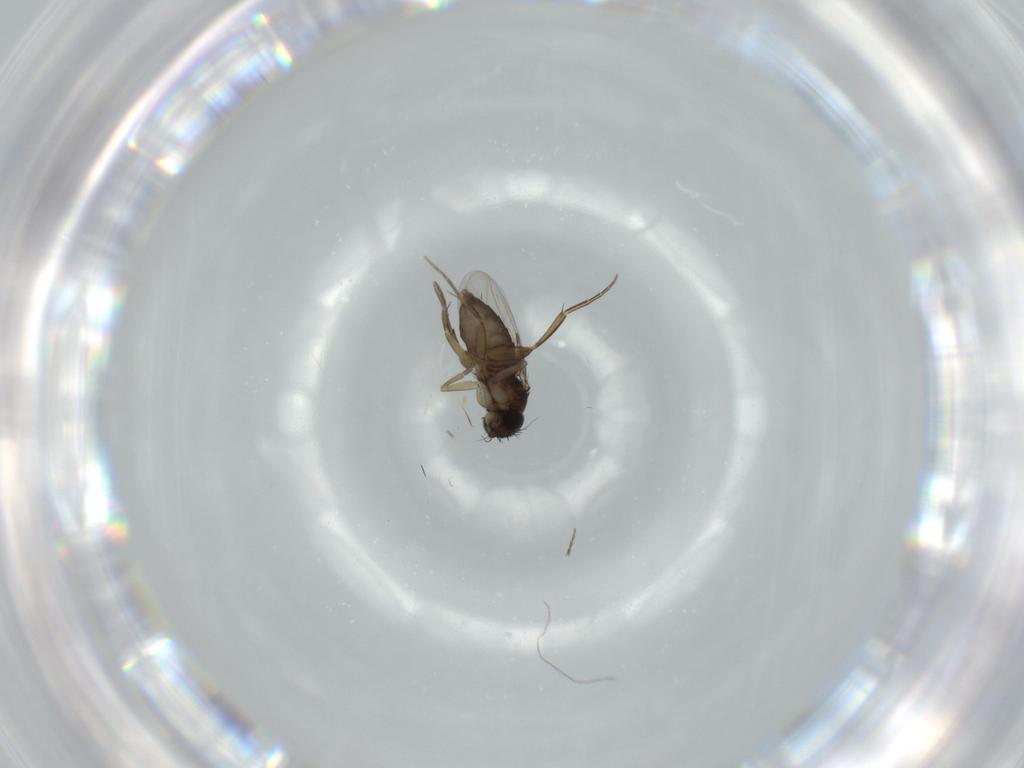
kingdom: Animalia
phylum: Arthropoda
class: Insecta
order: Diptera
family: Phoridae
